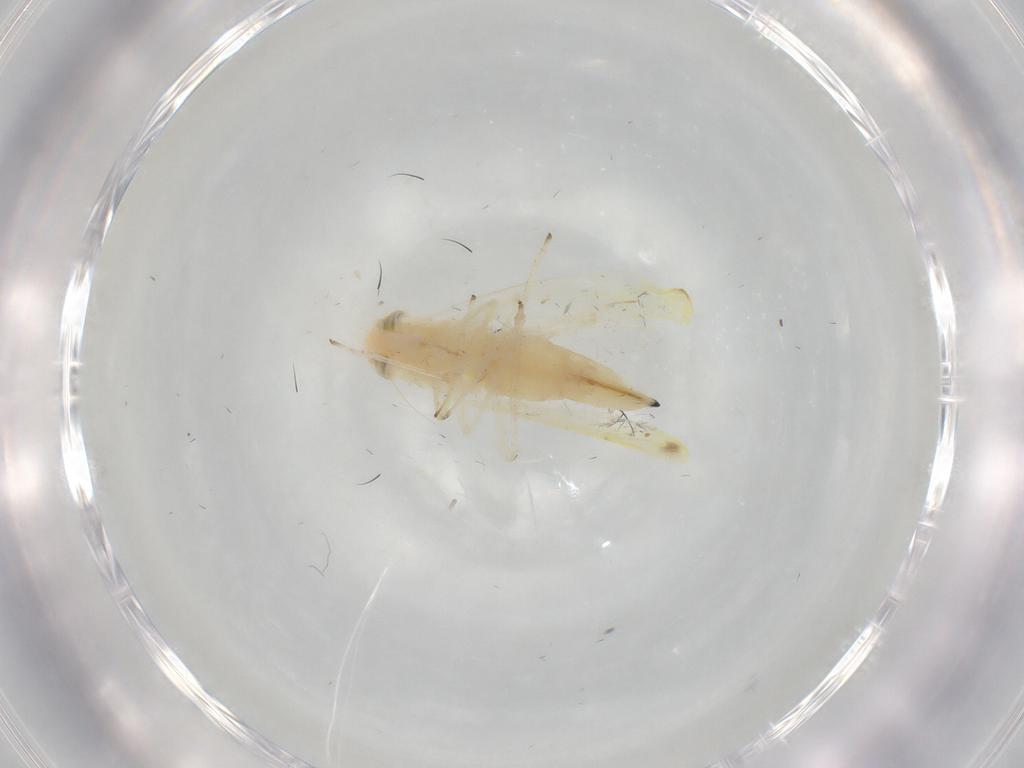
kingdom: Animalia
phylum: Arthropoda
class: Insecta
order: Hemiptera
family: Cicadellidae
